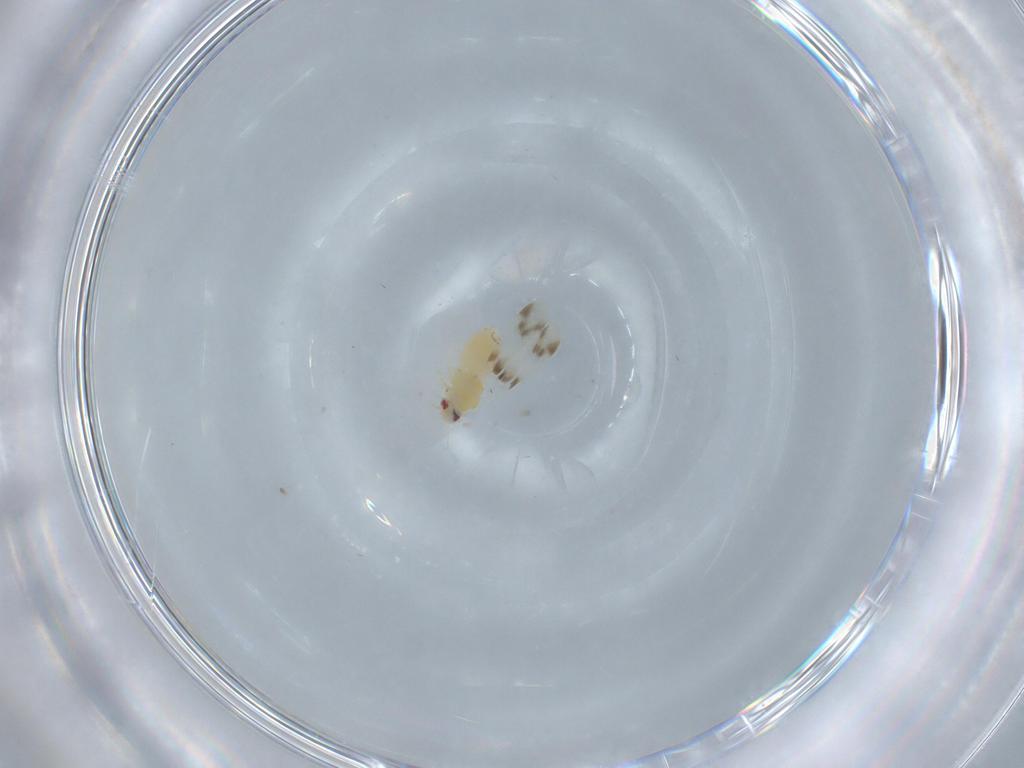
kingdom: Animalia
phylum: Arthropoda
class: Insecta
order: Hemiptera
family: Aleyrodidae
